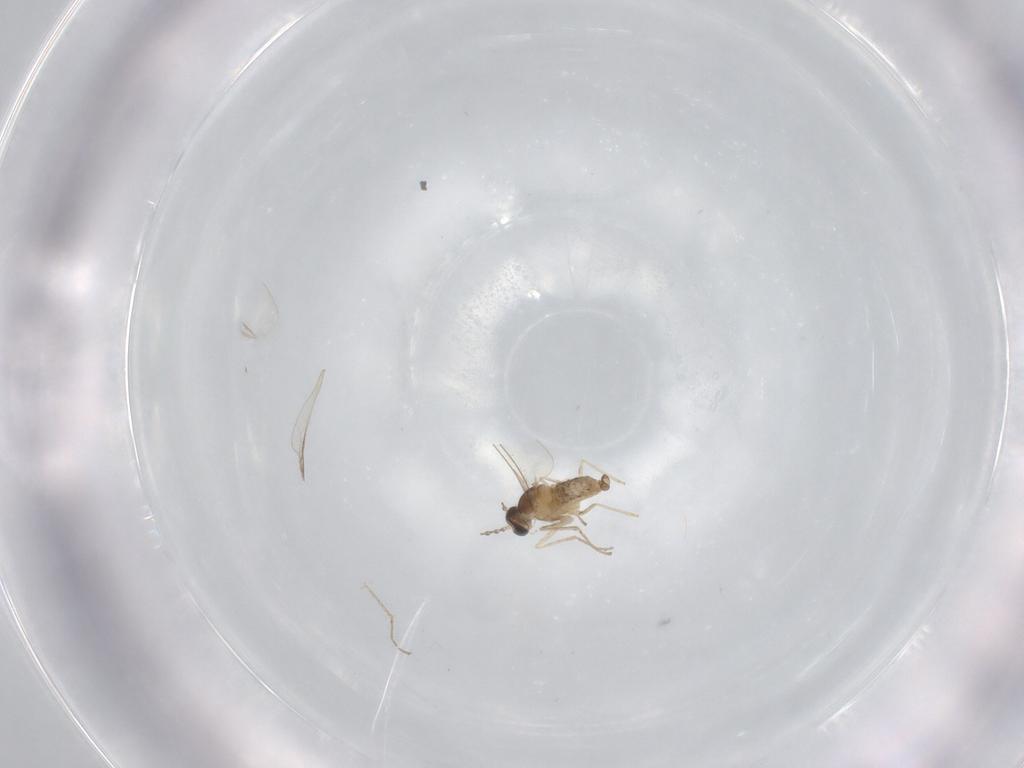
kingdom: Animalia
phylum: Arthropoda
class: Insecta
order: Diptera
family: Cecidomyiidae
